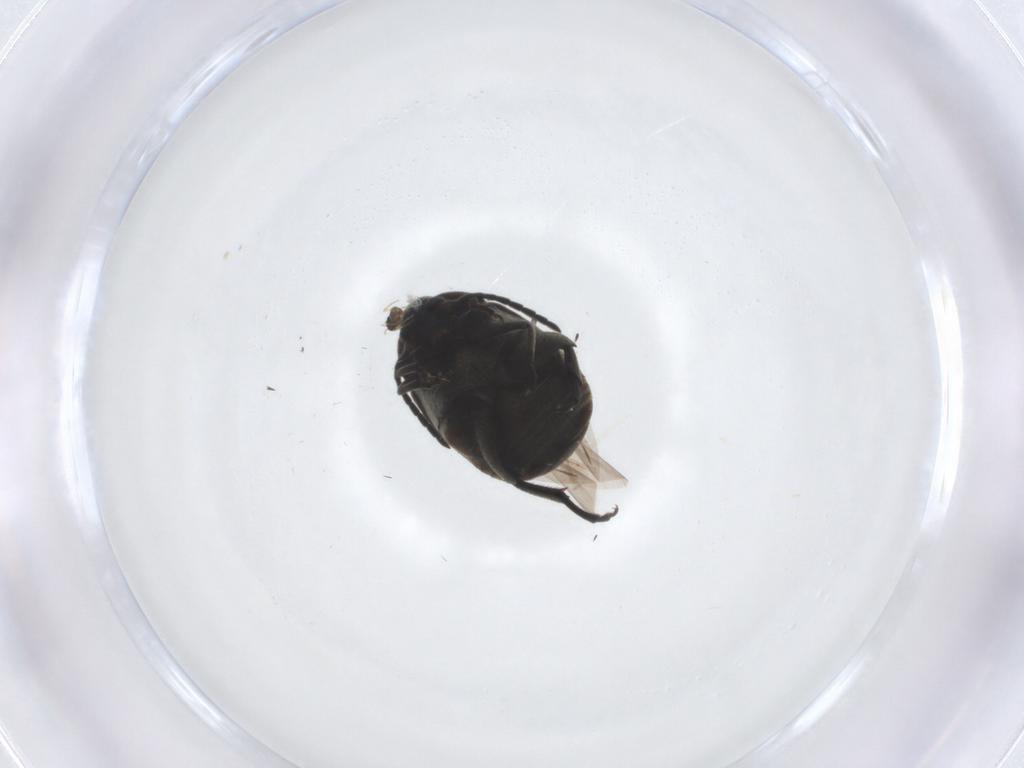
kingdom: Animalia
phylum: Arthropoda
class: Insecta
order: Coleoptera
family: Chrysomelidae
